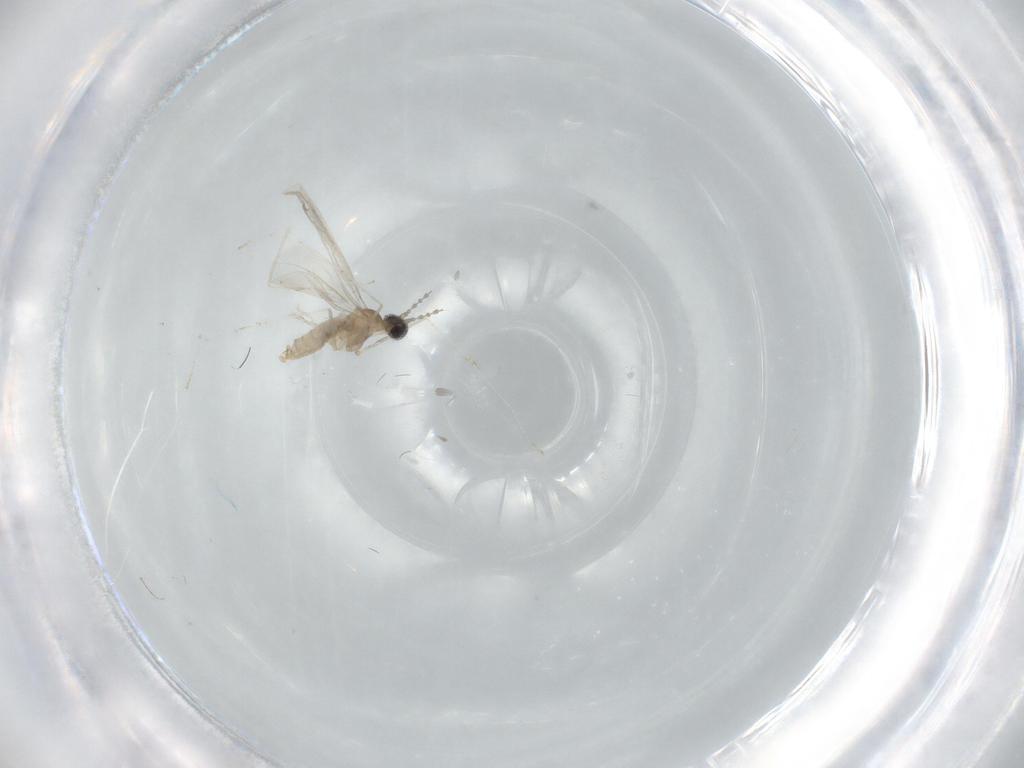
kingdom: Animalia
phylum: Arthropoda
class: Insecta
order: Diptera
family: Cecidomyiidae
